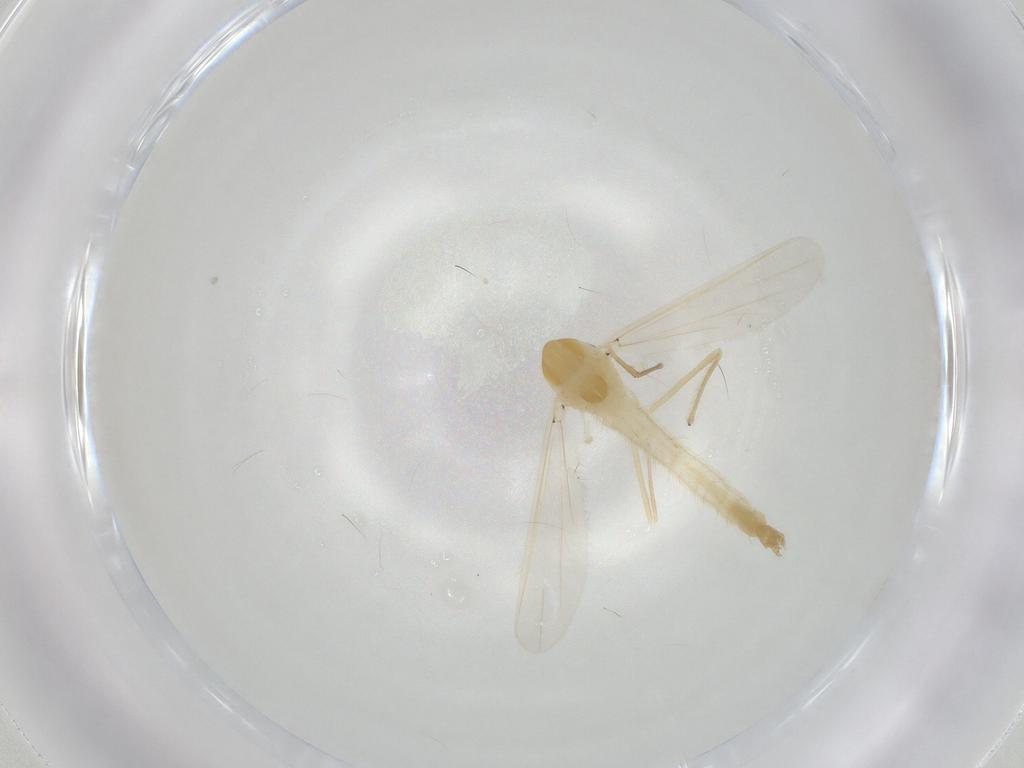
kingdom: Animalia
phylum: Arthropoda
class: Insecta
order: Diptera
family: Chironomidae
